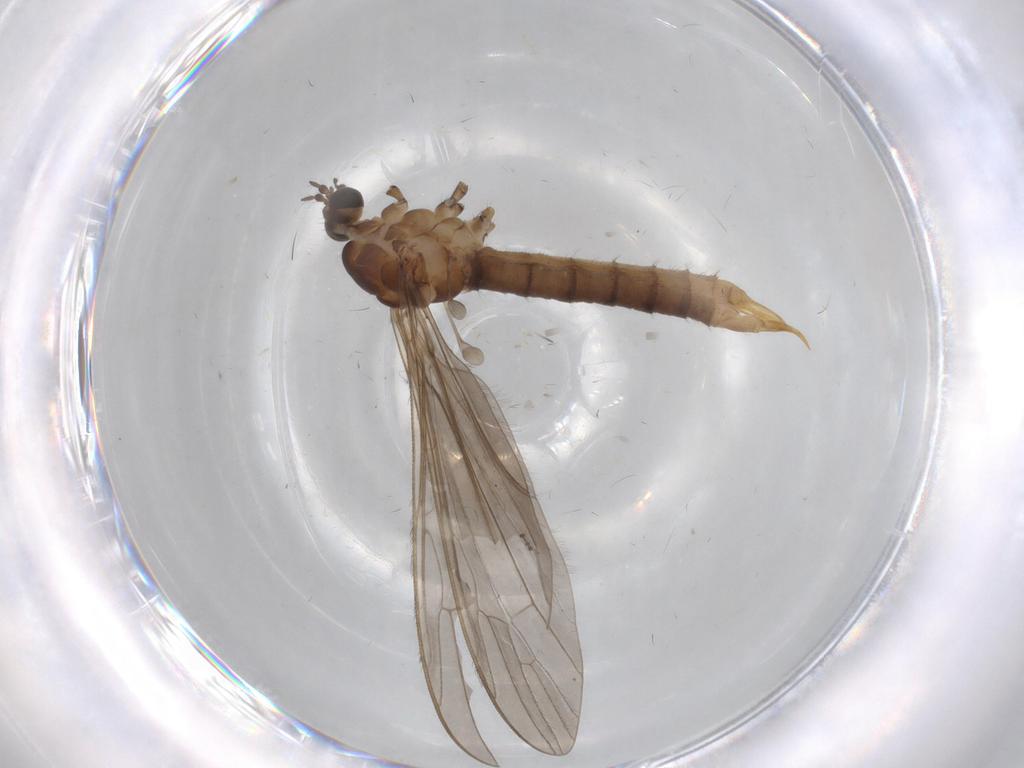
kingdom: Animalia
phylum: Arthropoda
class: Insecta
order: Diptera
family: Limoniidae
